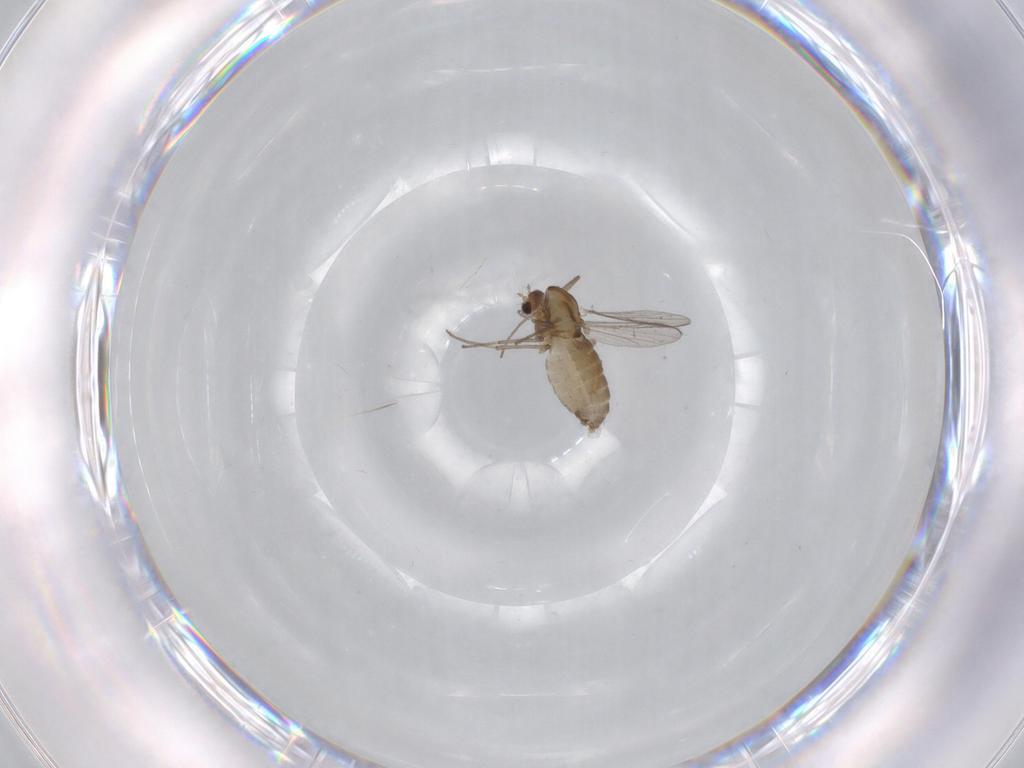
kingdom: Animalia
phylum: Arthropoda
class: Insecta
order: Diptera
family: Chironomidae
